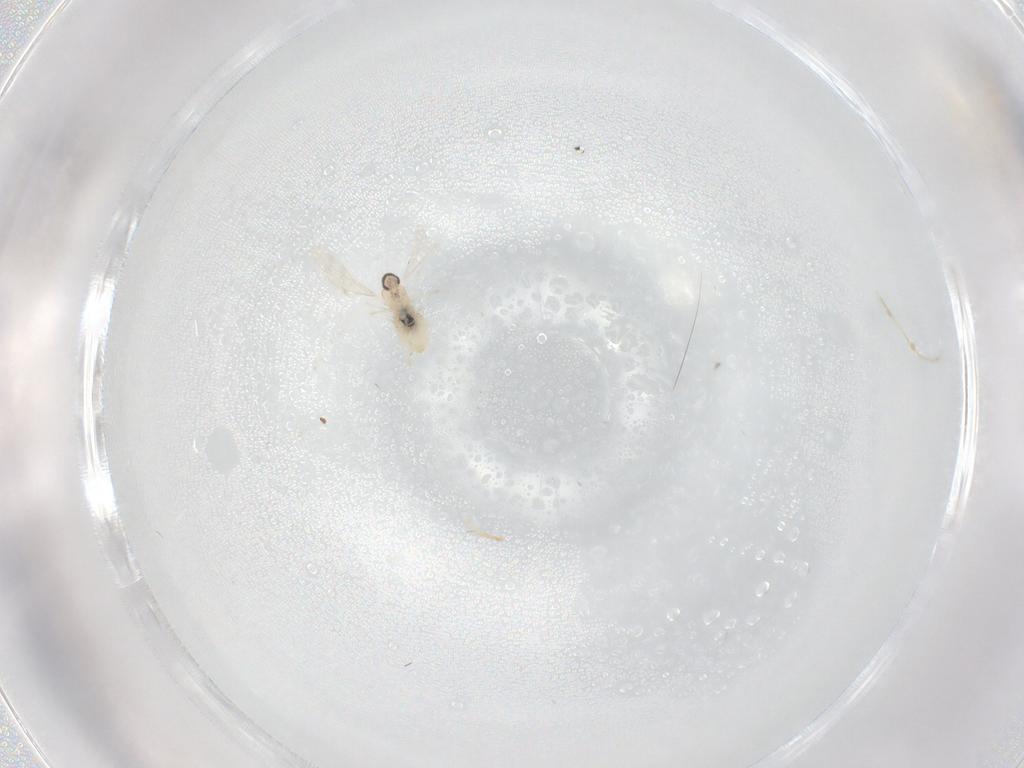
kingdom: Animalia
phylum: Arthropoda
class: Insecta
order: Diptera
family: Cecidomyiidae
